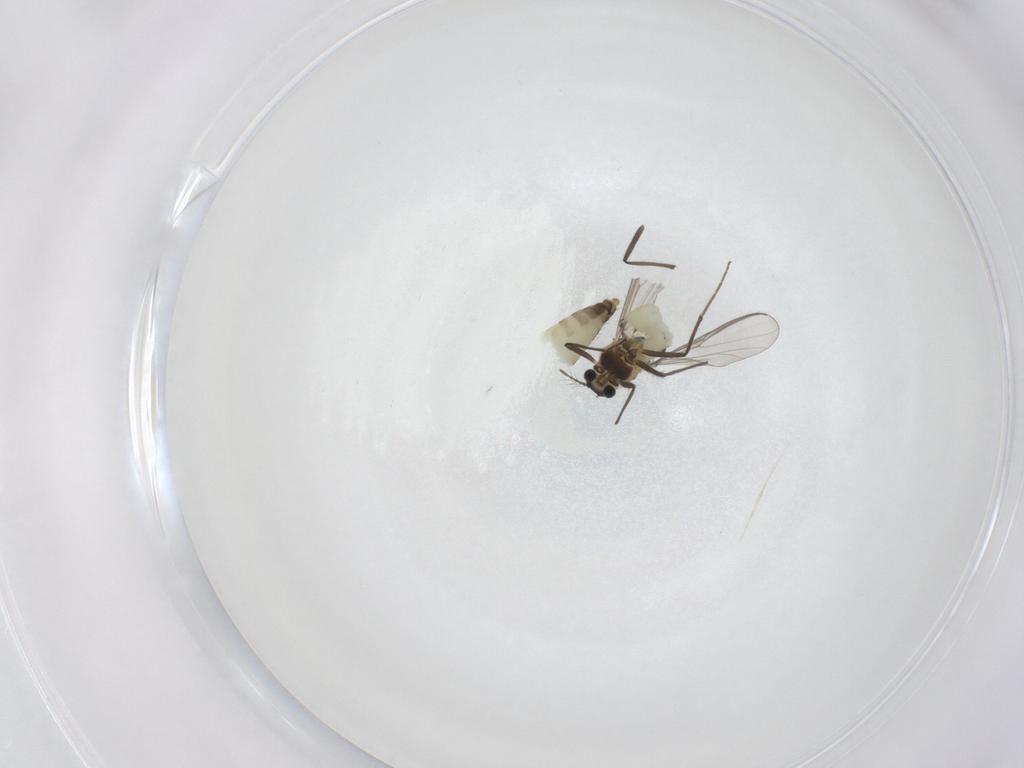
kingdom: Animalia
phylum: Arthropoda
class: Insecta
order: Diptera
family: Chironomidae
